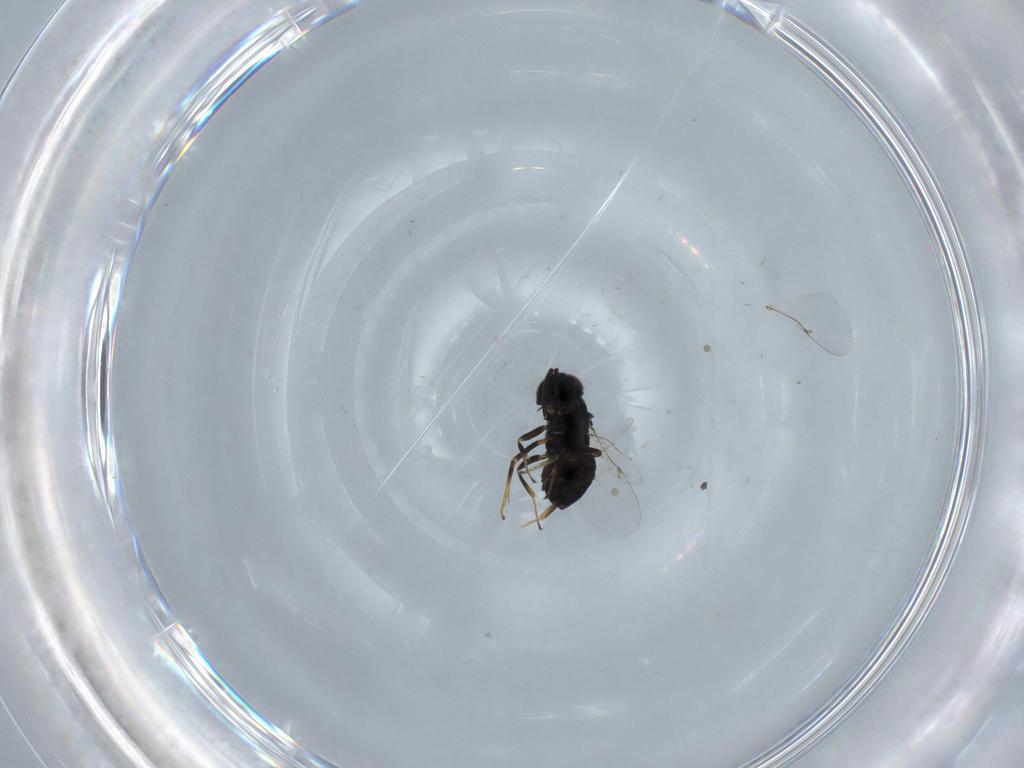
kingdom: Animalia
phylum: Arthropoda
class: Insecta
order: Hymenoptera
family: Encyrtidae
